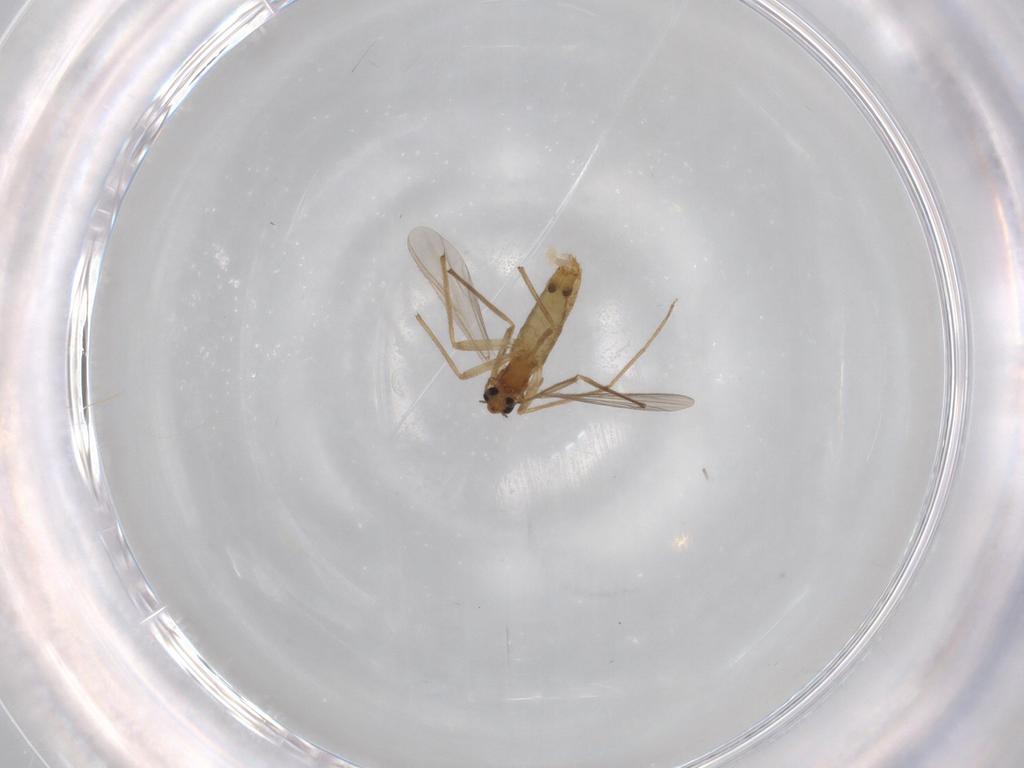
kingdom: Animalia
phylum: Arthropoda
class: Insecta
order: Diptera
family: Chironomidae
